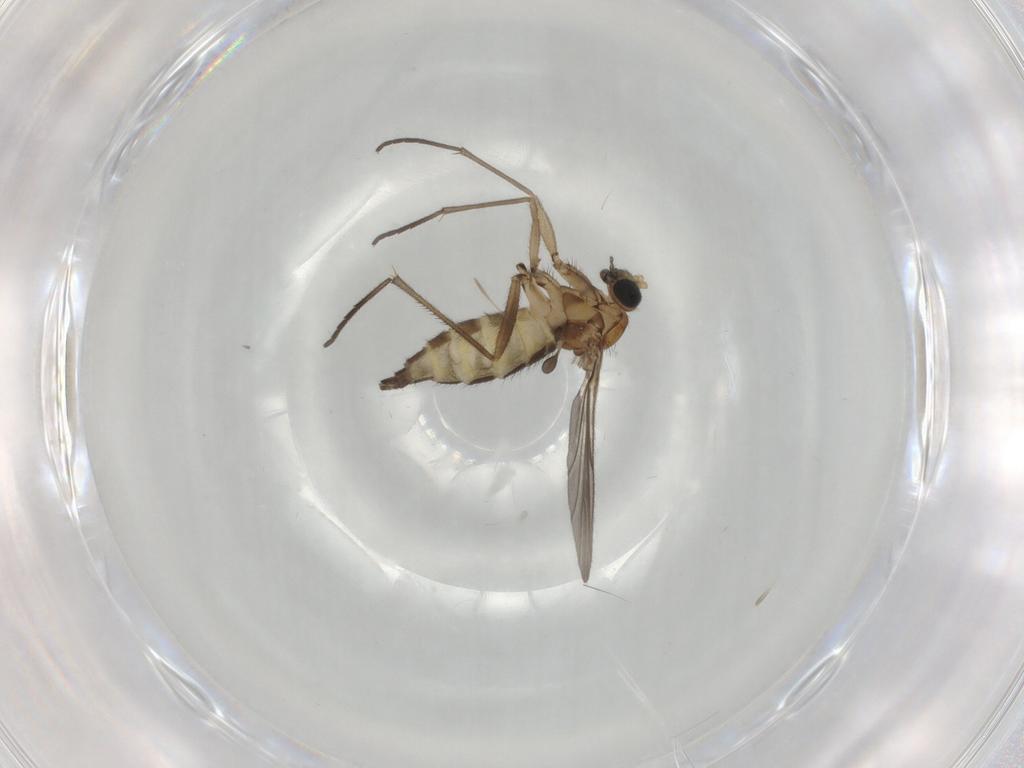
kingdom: Animalia
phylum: Arthropoda
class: Insecta
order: Diptera
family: Sciaridae
